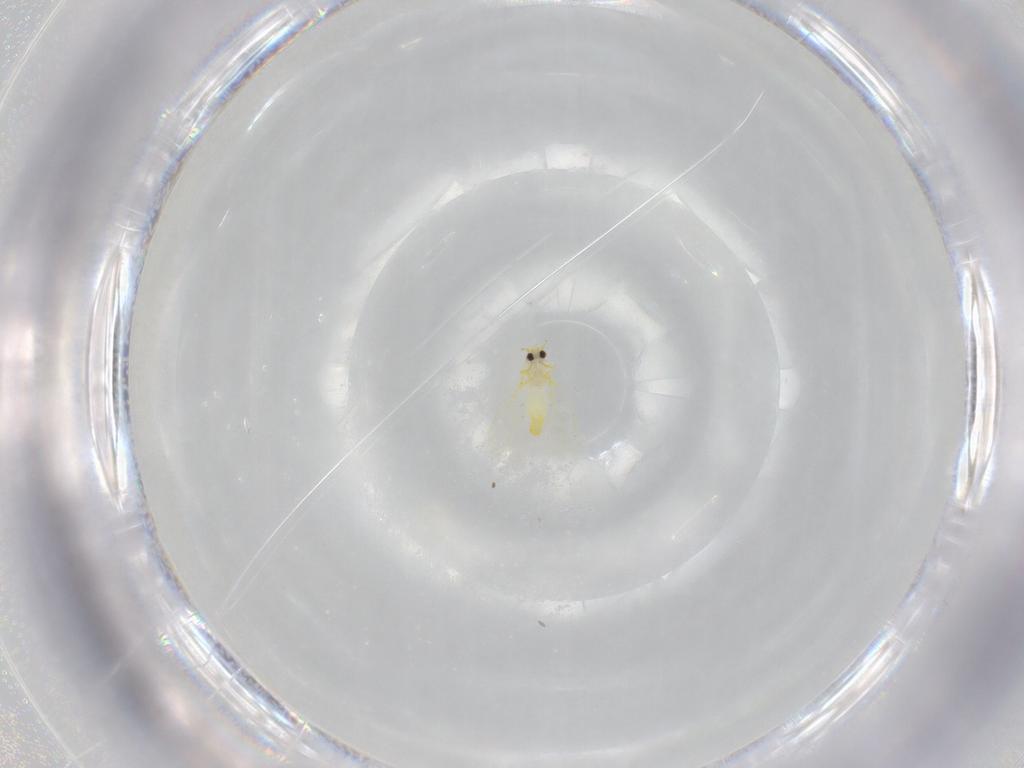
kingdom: Animalia
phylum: Arthropoda
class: Insecta
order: Hemiptera
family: Aleyrodidae
